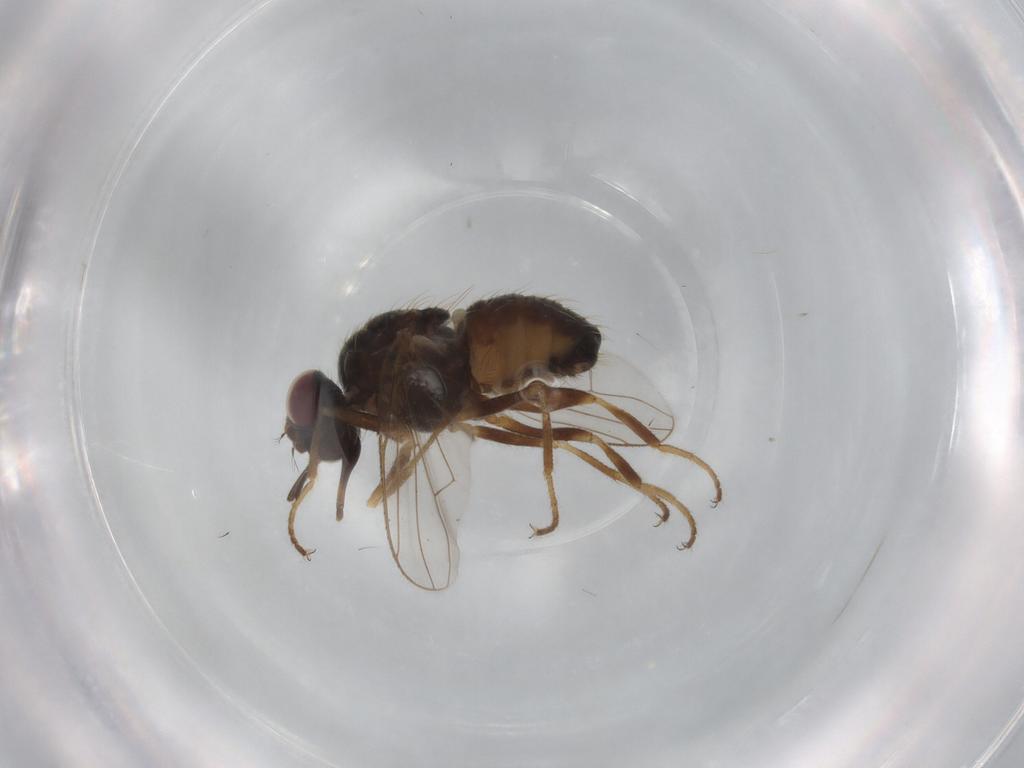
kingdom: Animalia
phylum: Arthropoda
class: Insecta
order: Diptera
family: Muscidae
